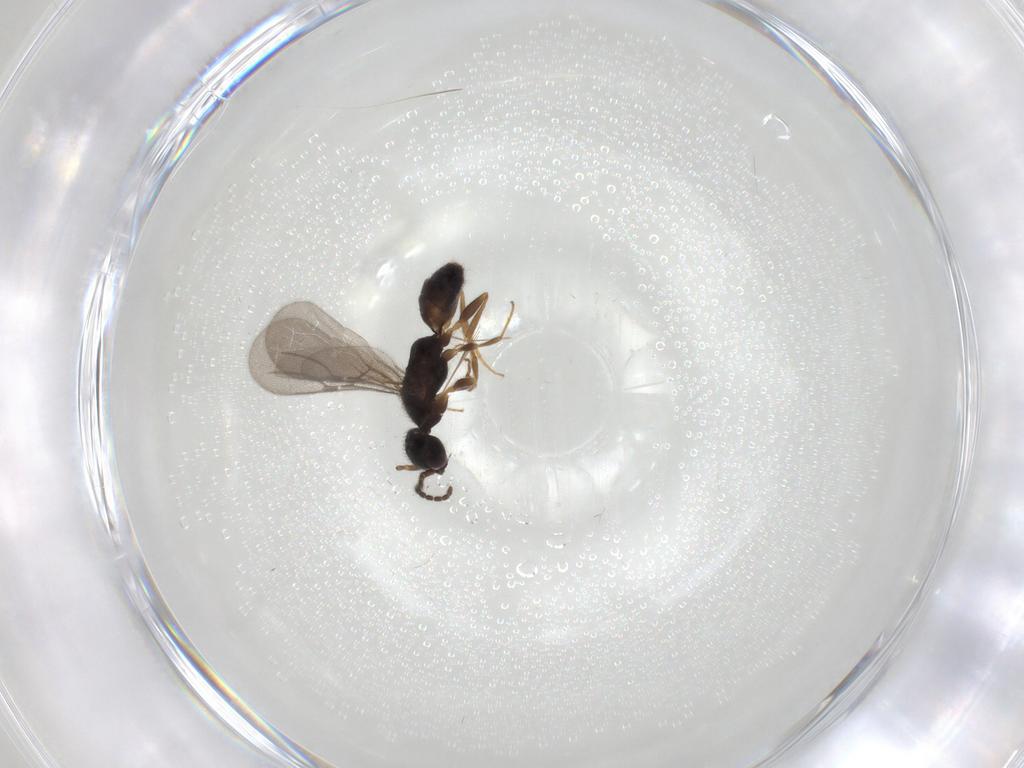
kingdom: Animalia
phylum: Arthropoda
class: Insecta
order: Hymenoptera
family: Bethylidae
